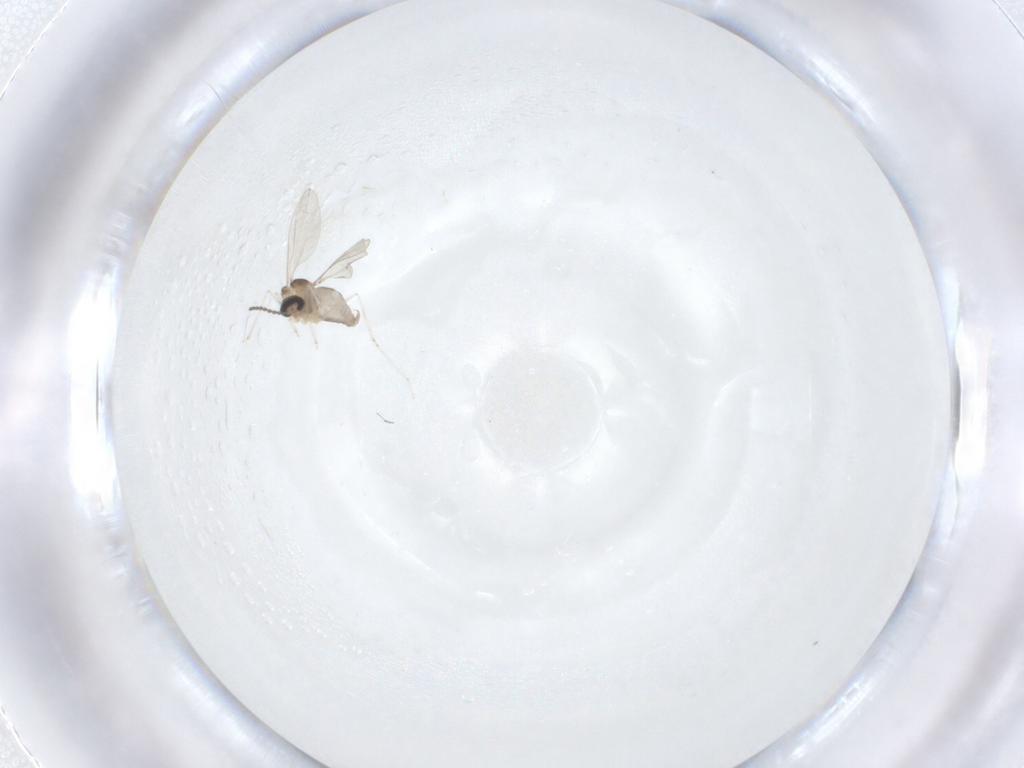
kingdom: Animalia
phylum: Arthropoda
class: Insecta
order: Diptera
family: Cecidomyiidae
